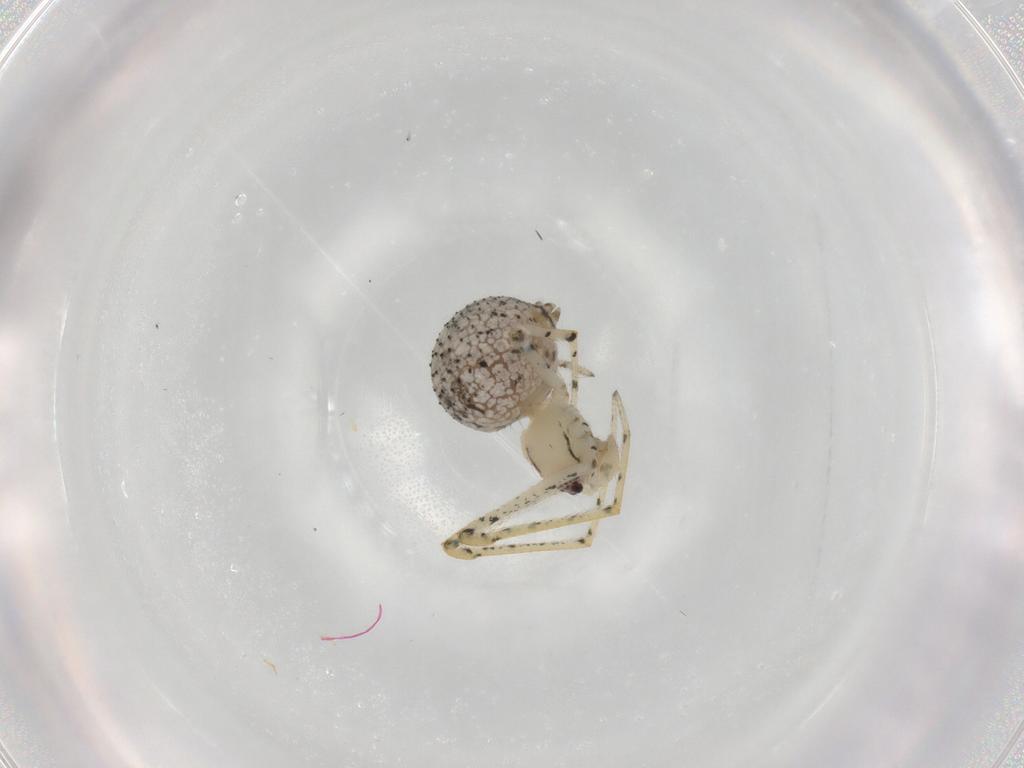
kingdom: Animalia
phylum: Arthropoda
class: Arachnida
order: Araneae
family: Theridiidae
